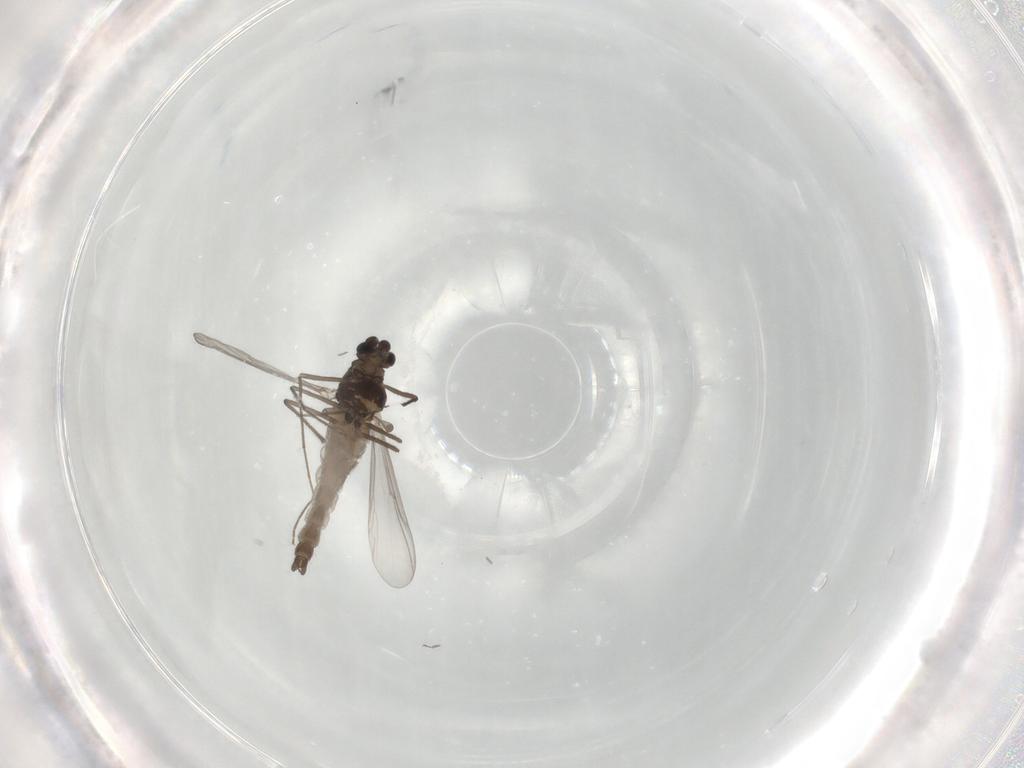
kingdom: Animalia
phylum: Arthropoda
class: Insecta
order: Diptera
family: Chironomidae
